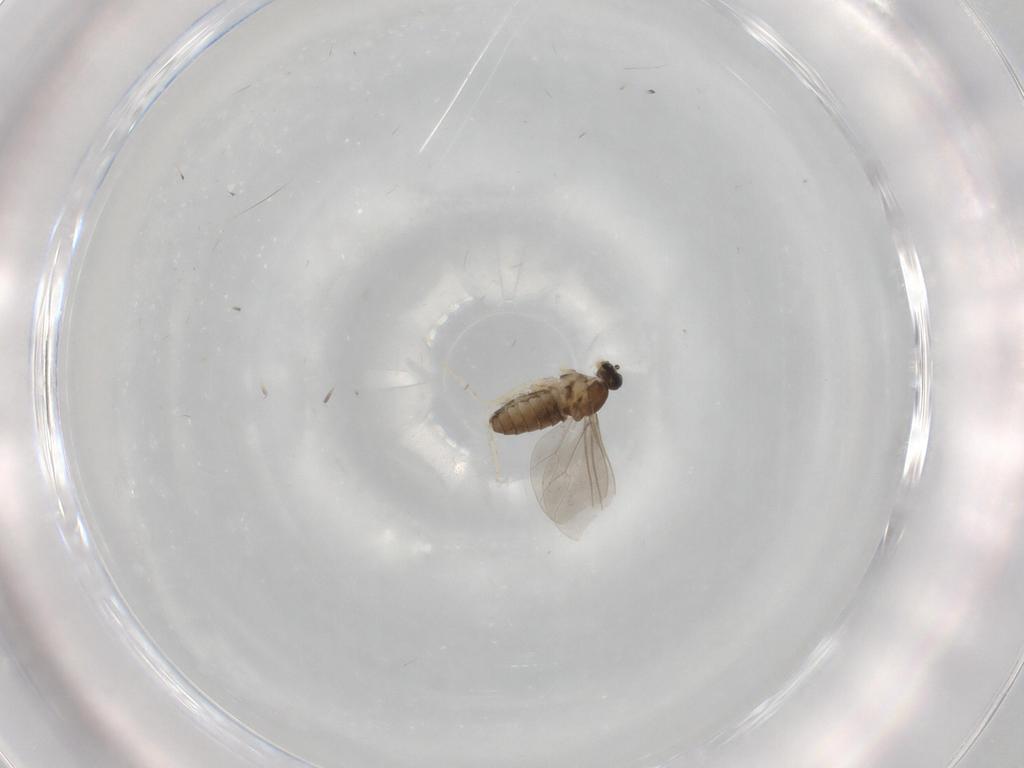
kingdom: Animalia
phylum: Arthropoda
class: Insecta
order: Diptera
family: Cecidomyiidae
